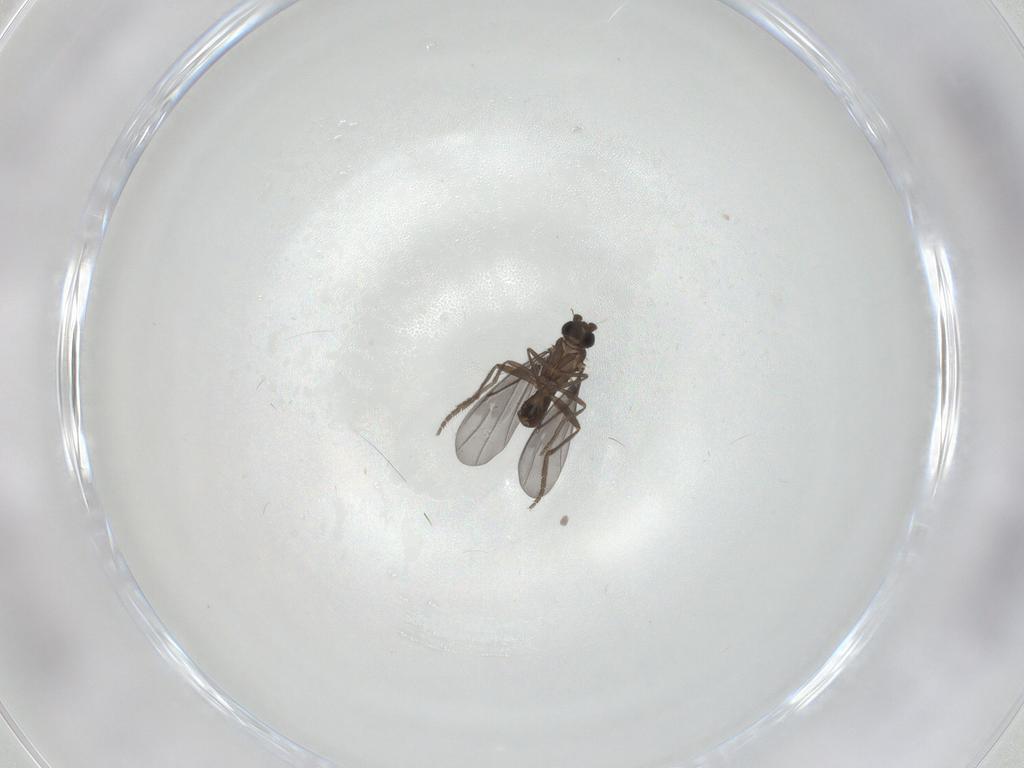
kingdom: Animalia
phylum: Arthropoda
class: Insecta
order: Diptera
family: Phoridae
